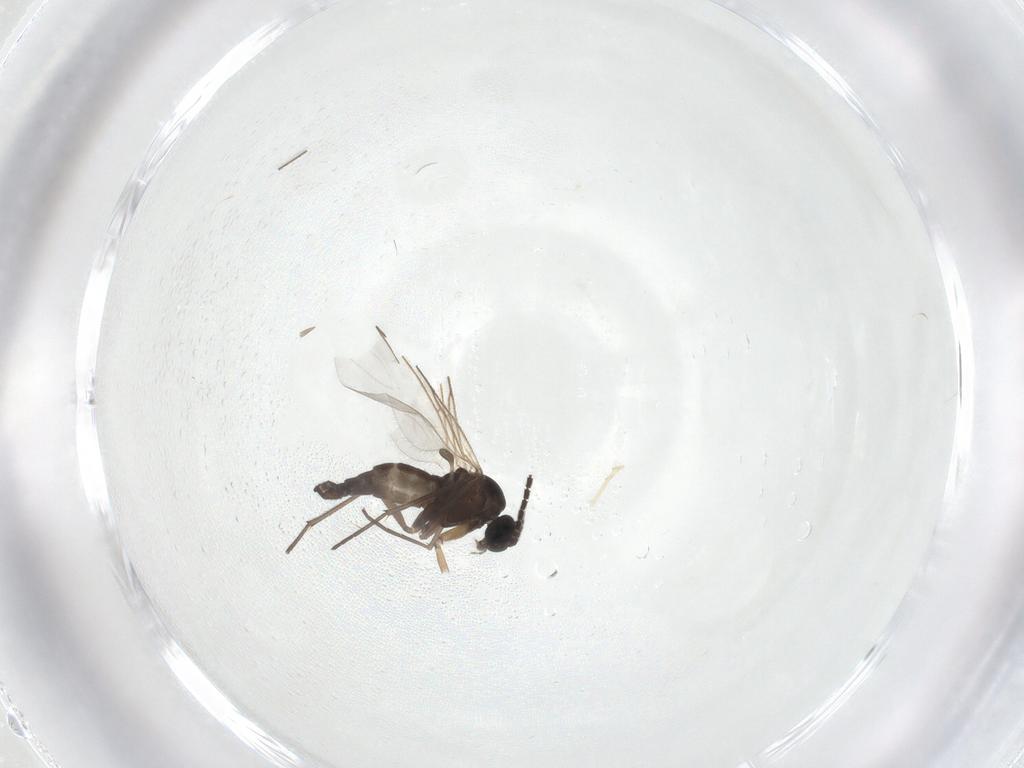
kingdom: Animalia
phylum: Arthropoda
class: Insecta
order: Diptera
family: Sciaridae
